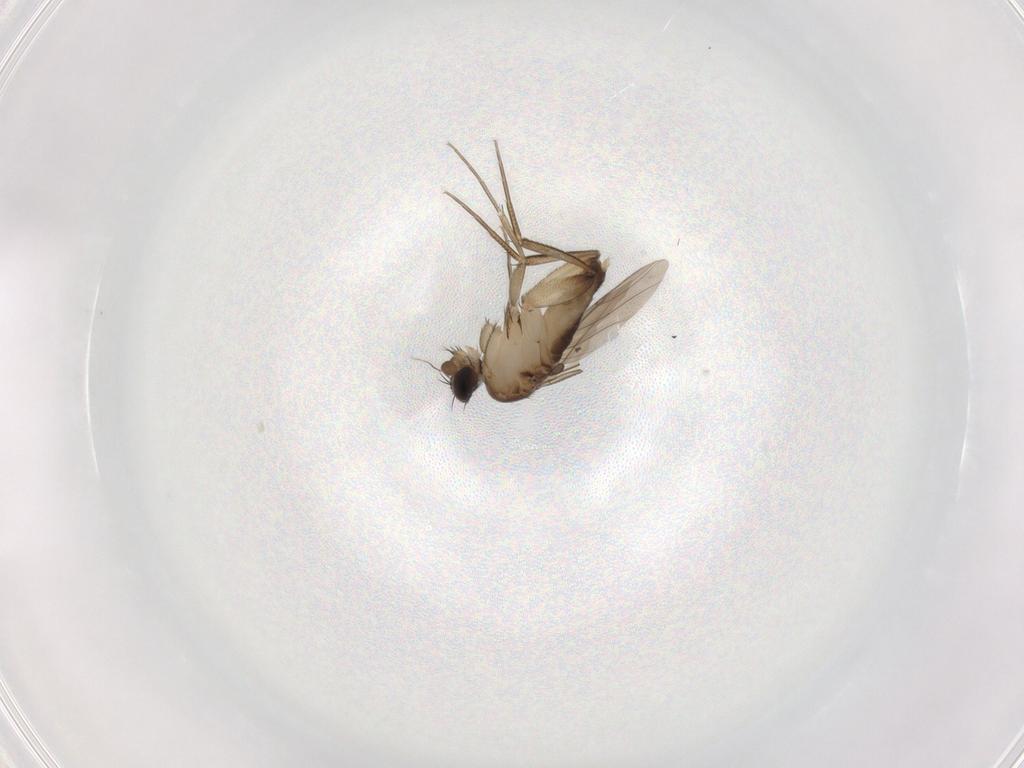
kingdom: Animalia
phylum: Arthropoda
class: Insecta
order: Diptera
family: Phoridae
